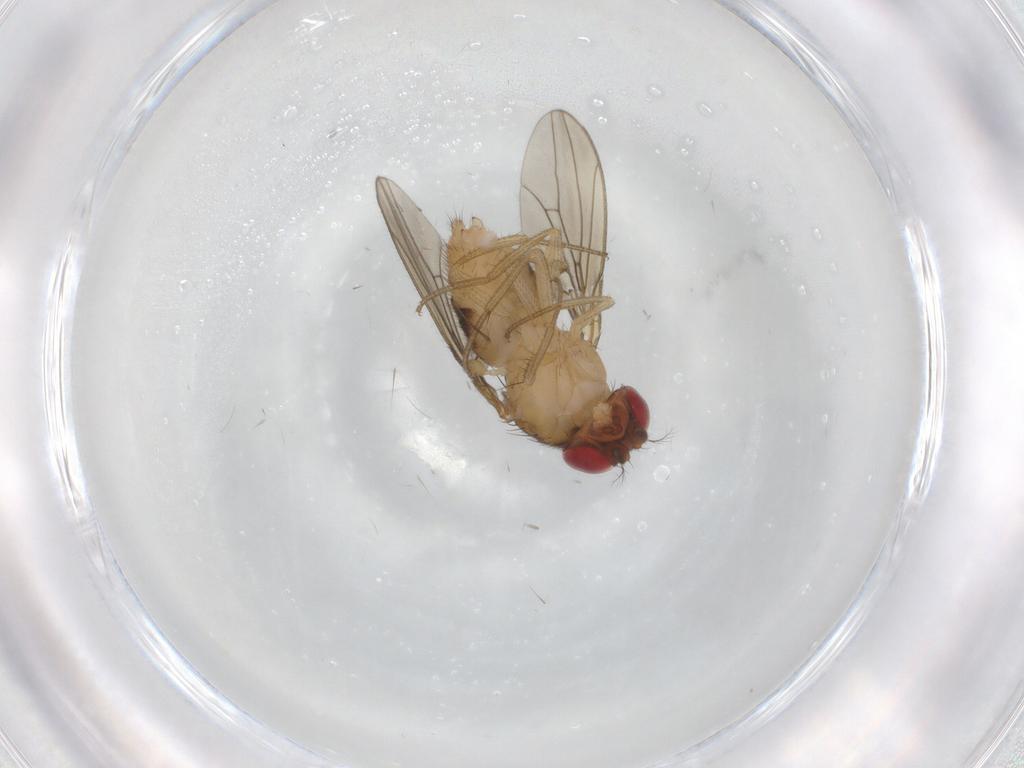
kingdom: Animalia
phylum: Arthropoda
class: Insecta
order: Diptera
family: Drosophilidae
